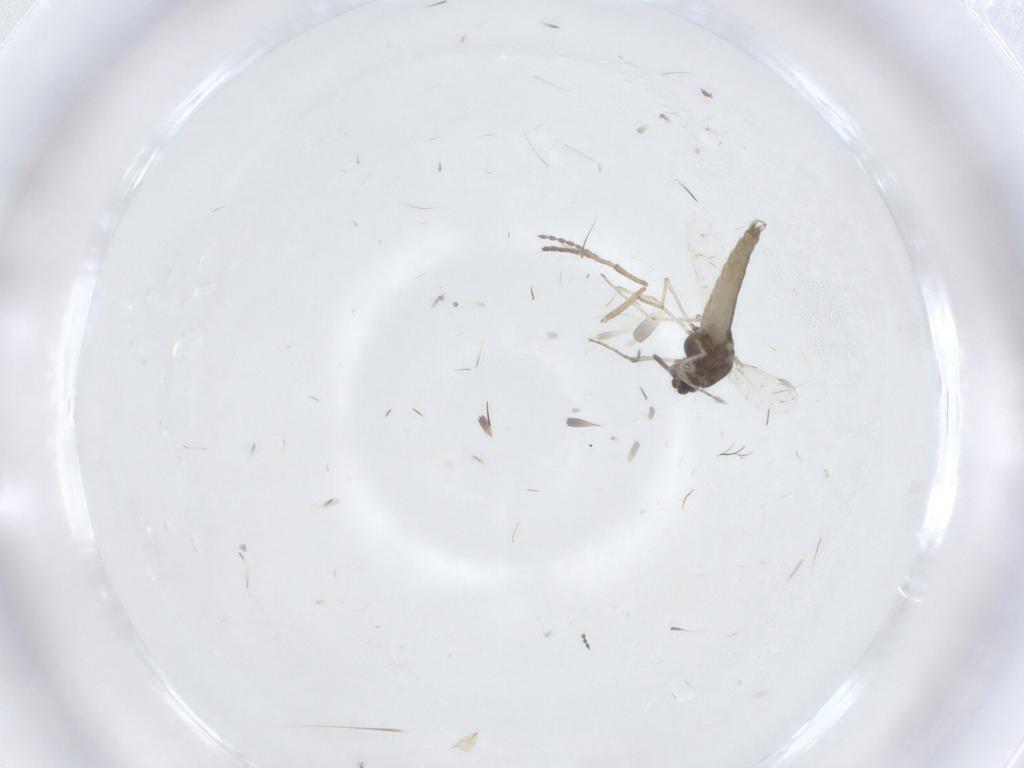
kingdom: Animalia
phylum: Arthropoda
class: Insecta
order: Diptera
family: Chironomidae
